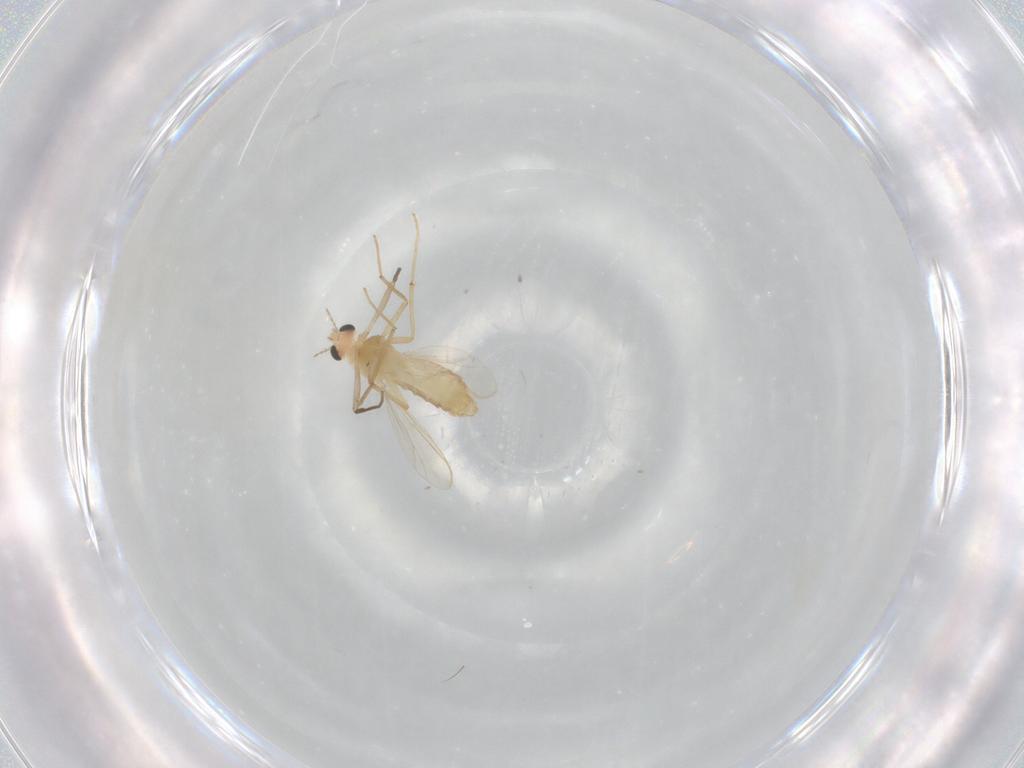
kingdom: Animalia
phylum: Arthropoda
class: Insecta
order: Diptera
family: Chironomidae
